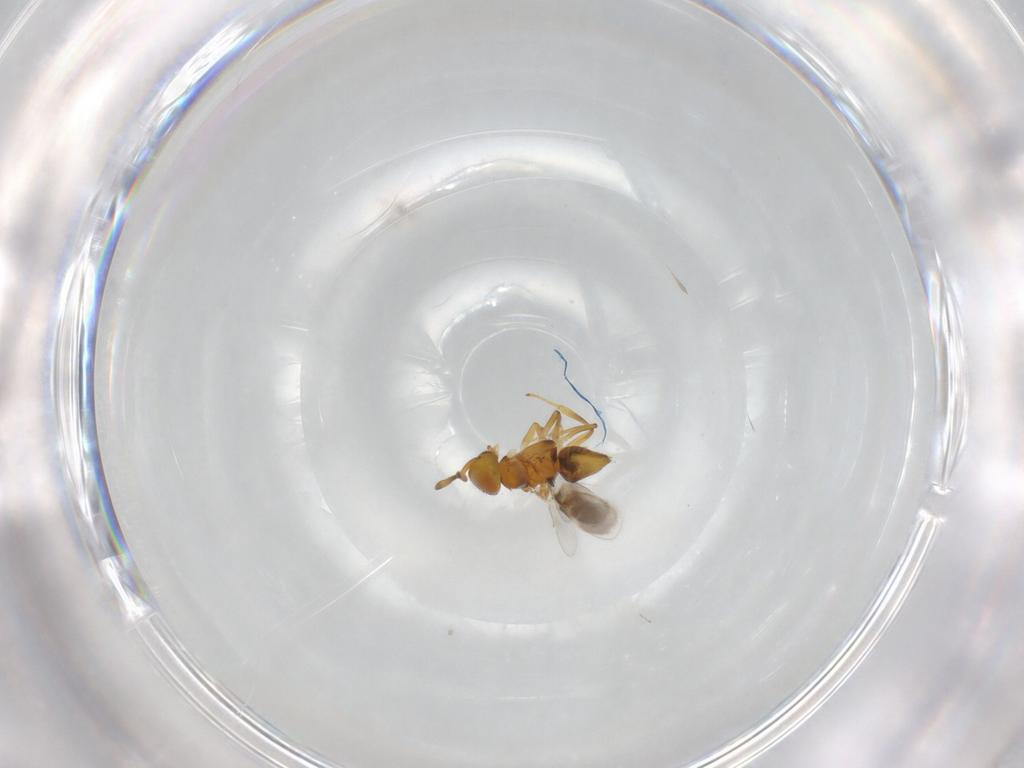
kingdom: Animalia
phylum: Arthropoda
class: Insecta
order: Hymenoptera
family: Encyrtidae
